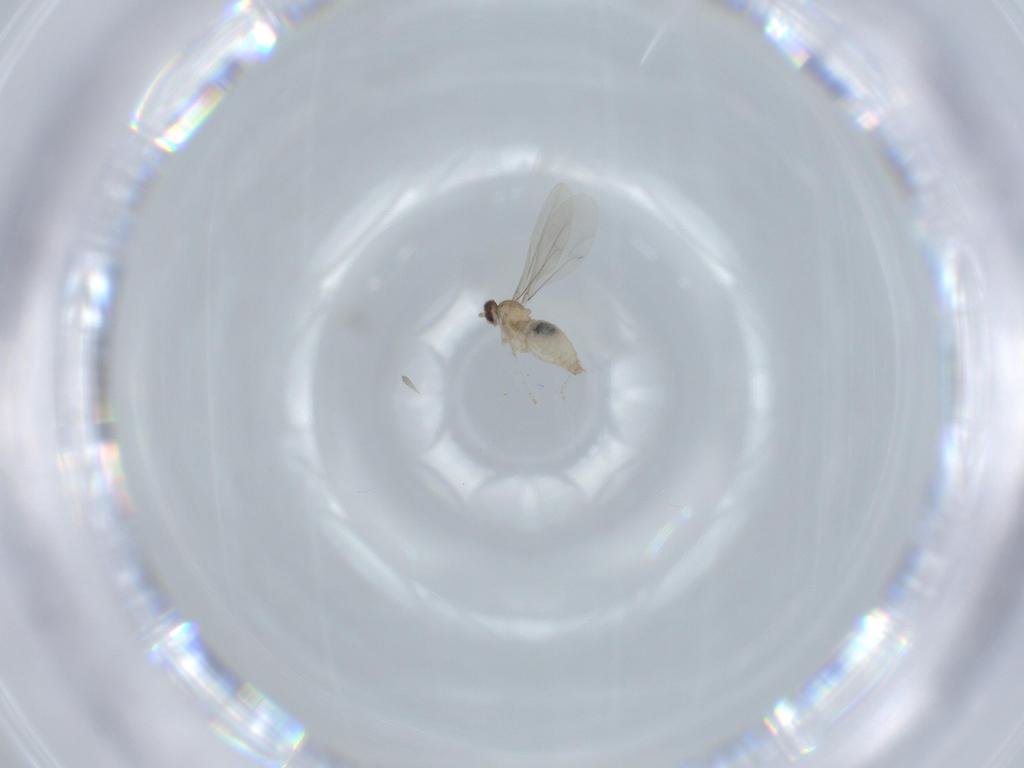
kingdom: Animalia
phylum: Arthropoda
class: Insecta
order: Diptera
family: Cecidomyiidae
